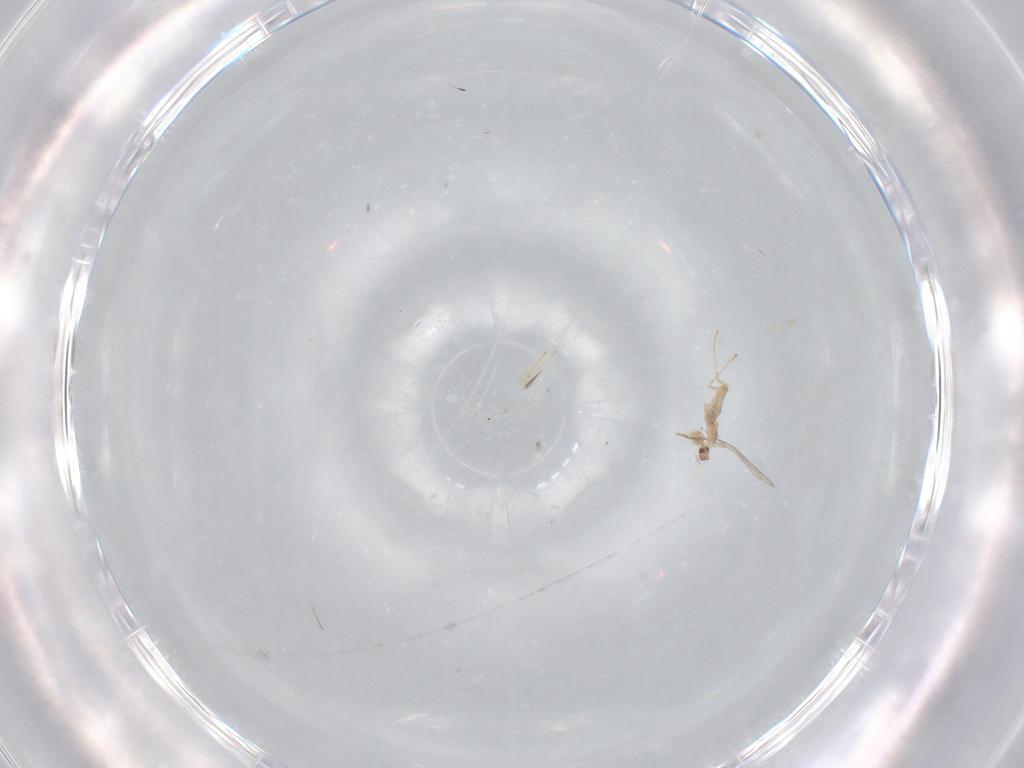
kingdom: Animalia
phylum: Arthropoda
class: Insecta
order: Diptera
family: Cecidomyiidae
